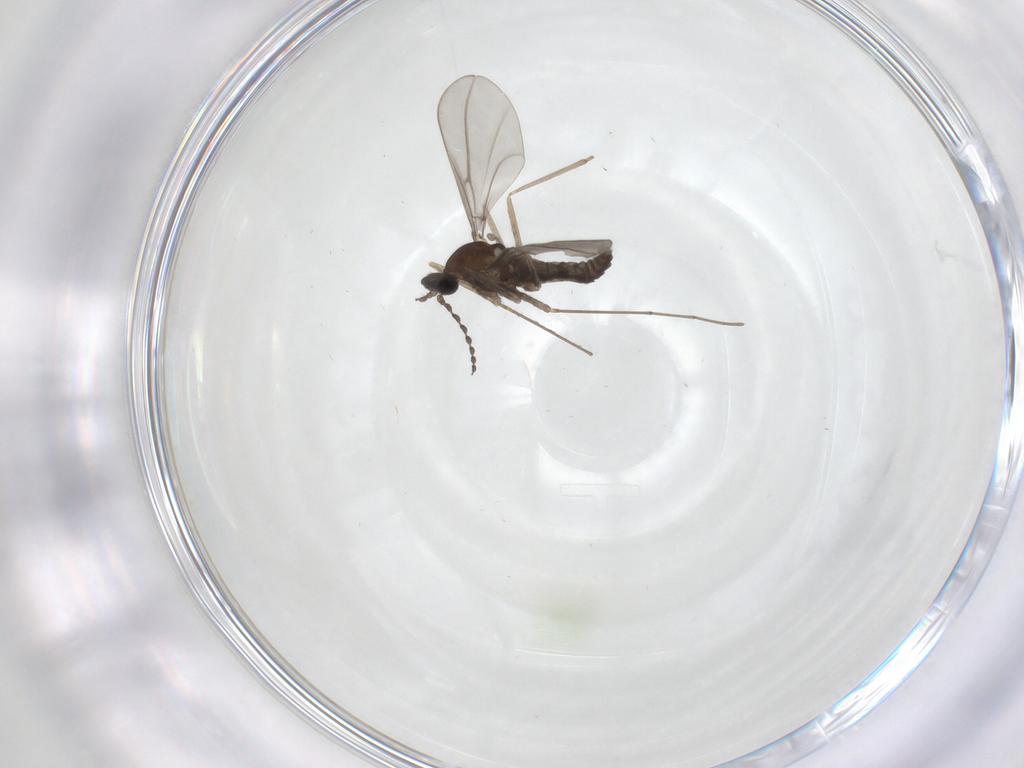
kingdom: Animalia
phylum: Arthropoda
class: Insecta
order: Diptera
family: Cecidomyiidae
